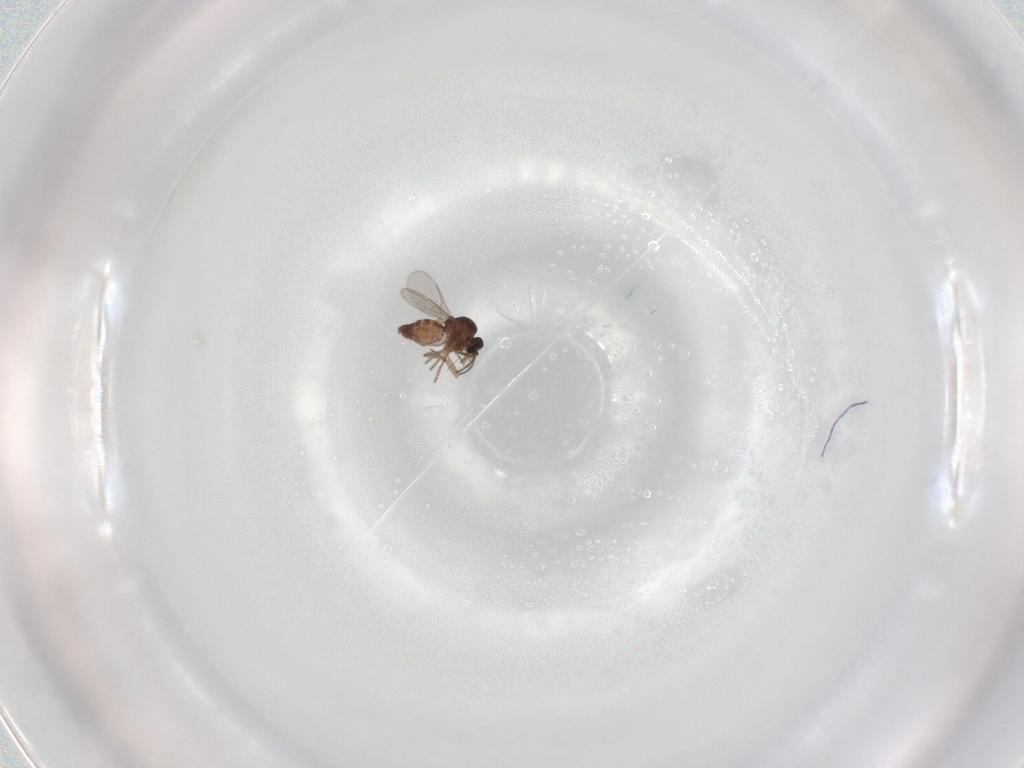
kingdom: Animalia
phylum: Arthropoda
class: Insecta
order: Diptera
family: Ceratopogonidae
